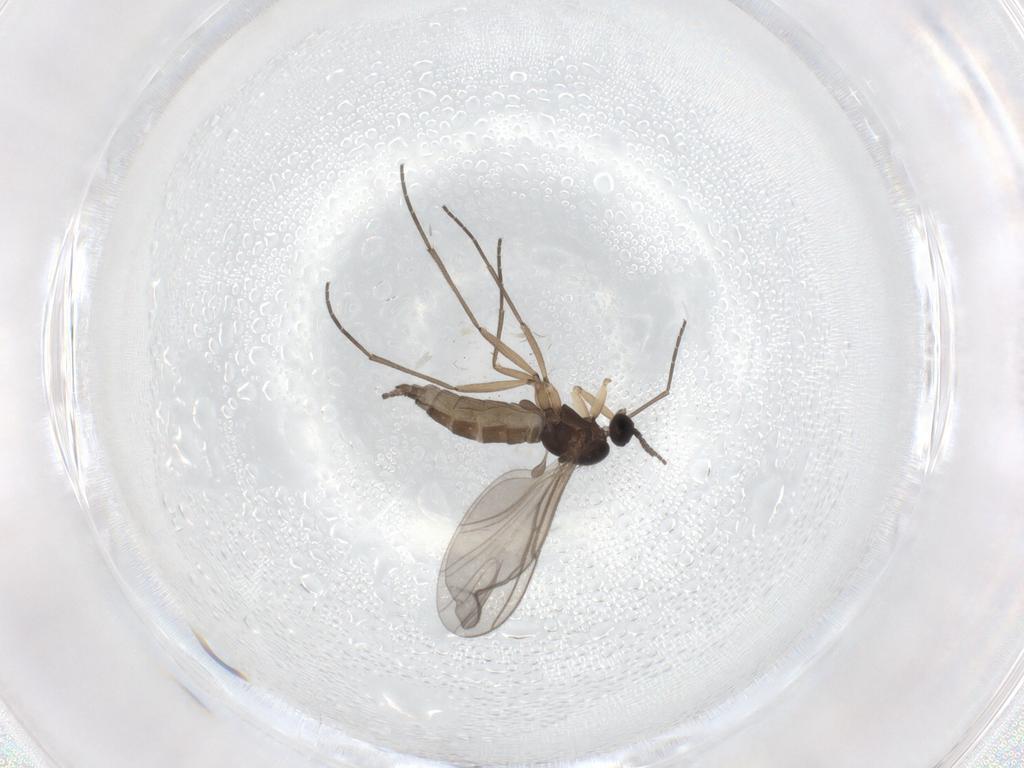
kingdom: Animalia
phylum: Arthropoda
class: Insecta
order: Diptera
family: Sciaridae
